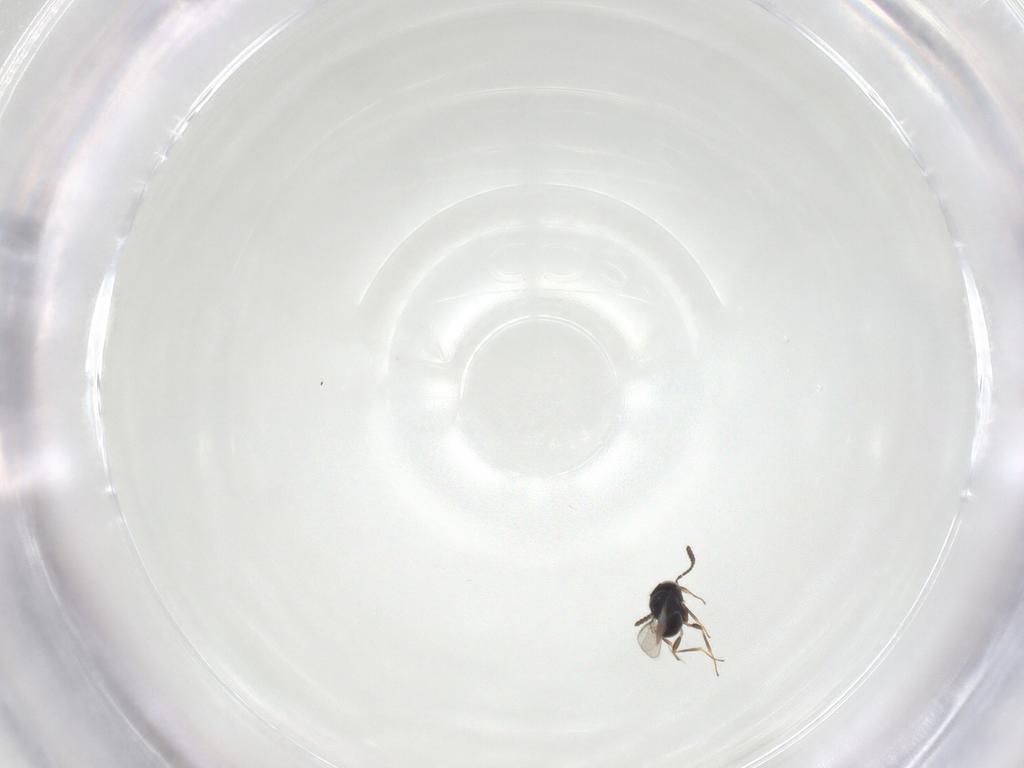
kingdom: Animalia
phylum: Arthropoda
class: Insecta
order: Hymenoptera
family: Scelionidae
